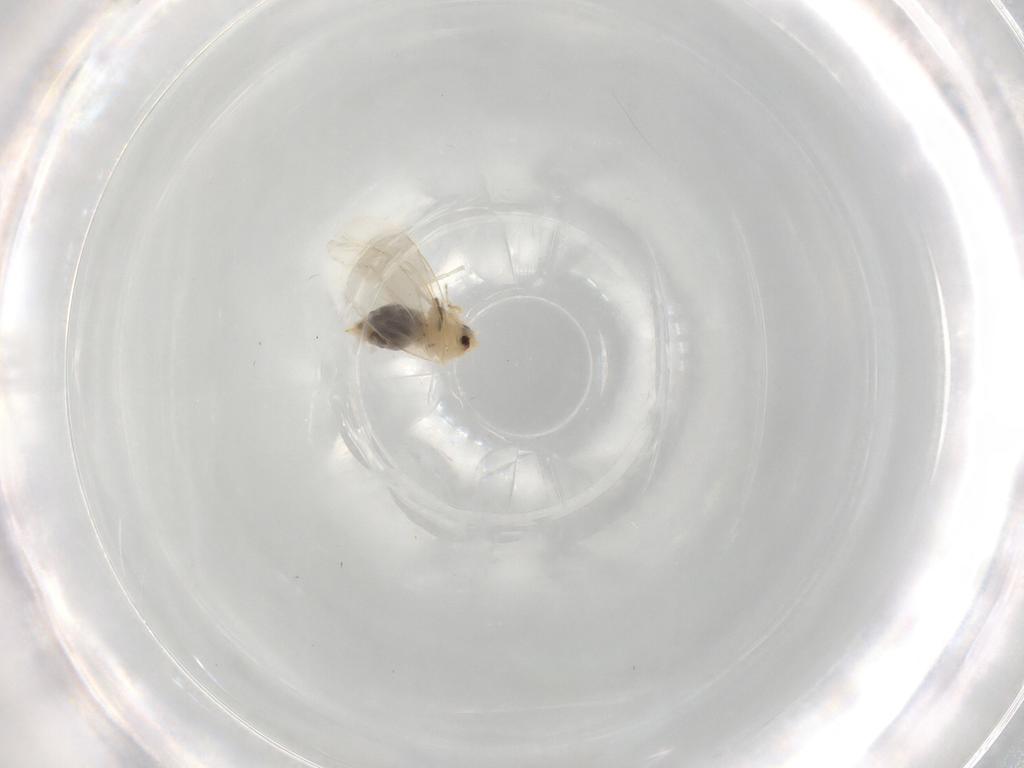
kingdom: Animalia
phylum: Arthropoda
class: Insecta
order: Hemiptera
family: Aleyrodidae
